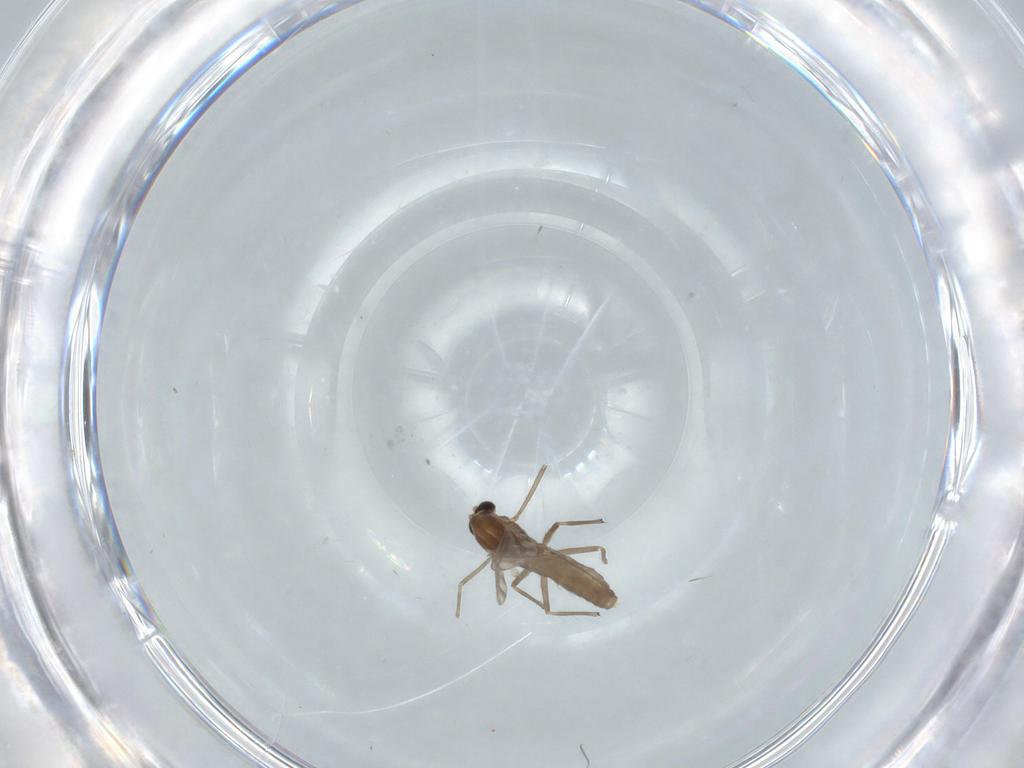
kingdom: Animalia
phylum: Arthropoda
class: Insecta
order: Diptera
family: Chironomidae
